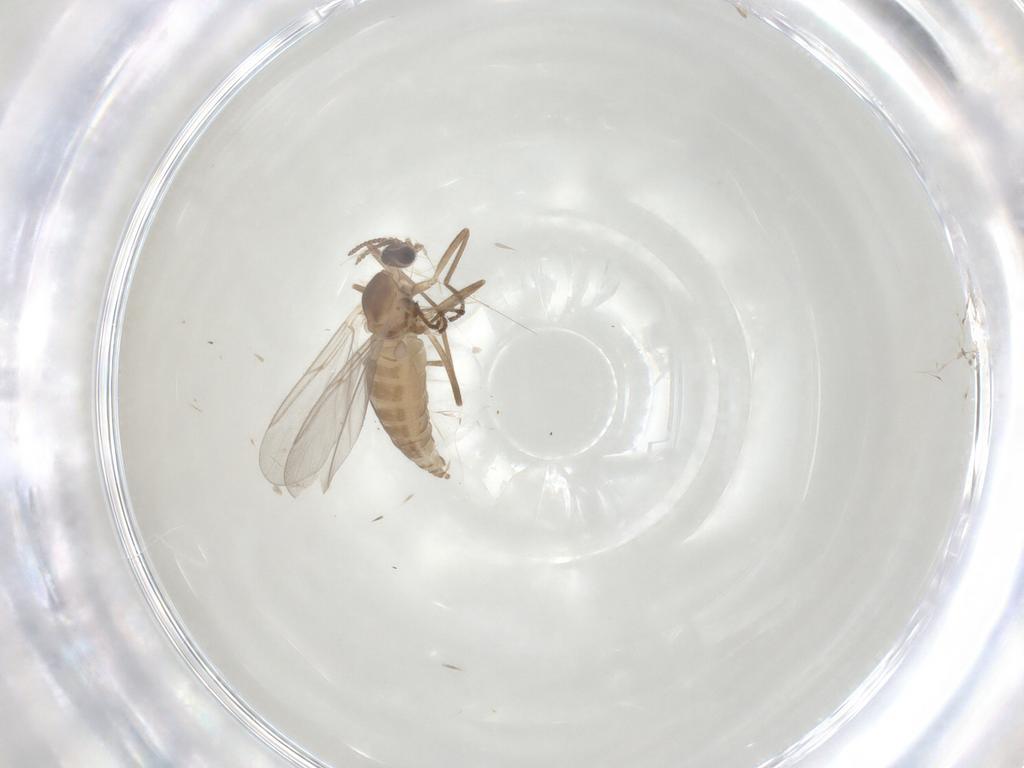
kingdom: Animalia
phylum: Arthropoda
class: Insecta
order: Diptera
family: Cecidomyiidae
